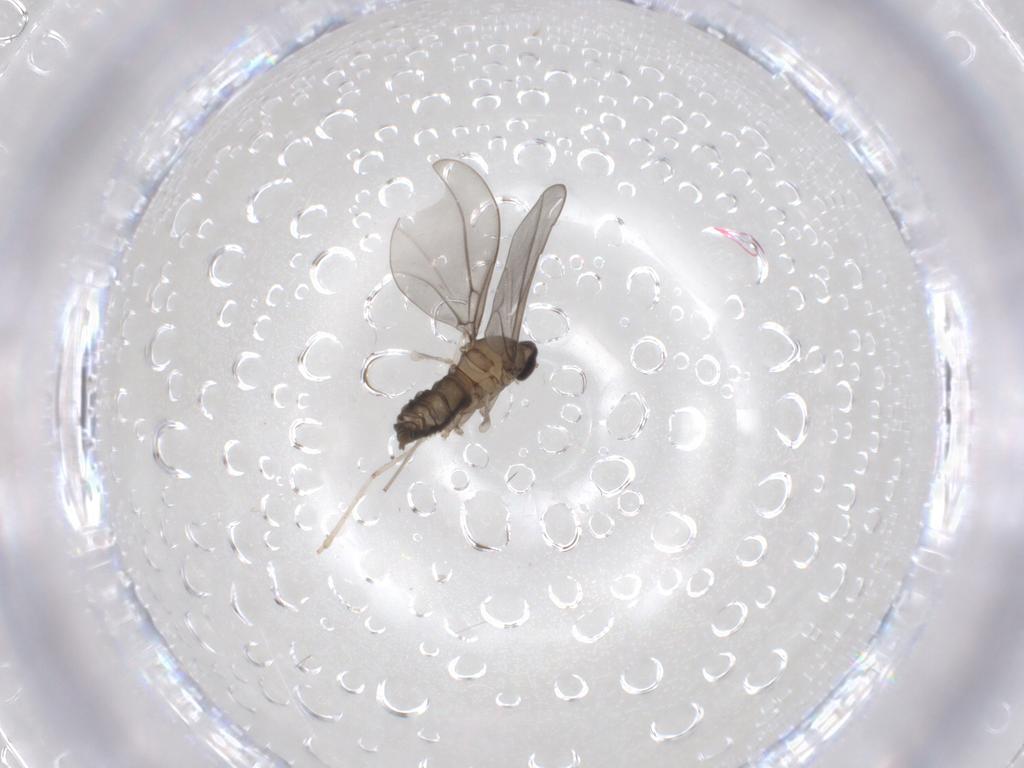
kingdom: Animalia
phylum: Arthropoda
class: Insecta
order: Diptera
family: Cecidomyiidae
